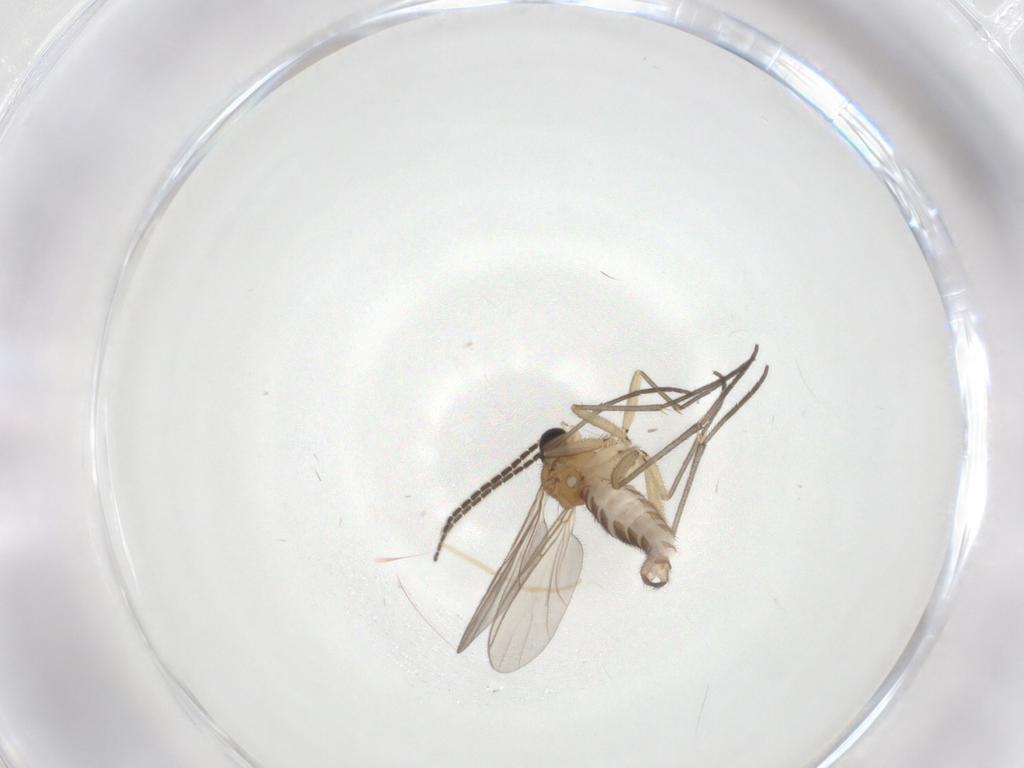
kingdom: Animalia
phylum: Arthropoda
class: Insecta
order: Diptera
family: Sciaridae
